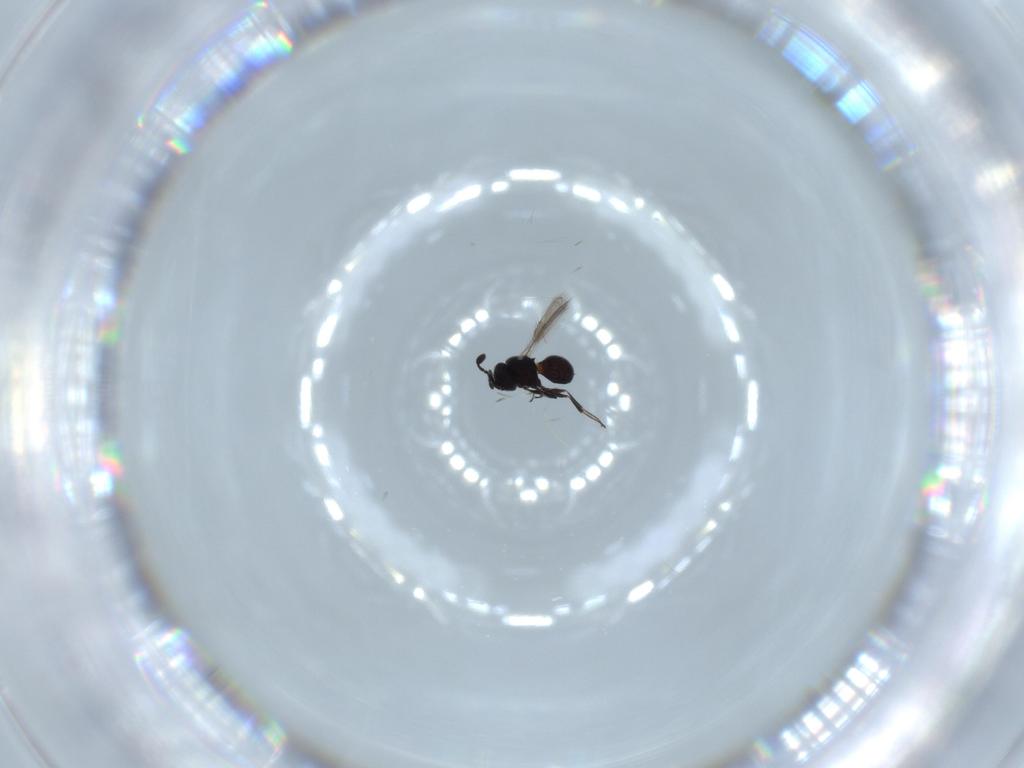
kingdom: Animalia
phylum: Arthropoda
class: Insecta
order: Hymenoptera
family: Scelionidae
